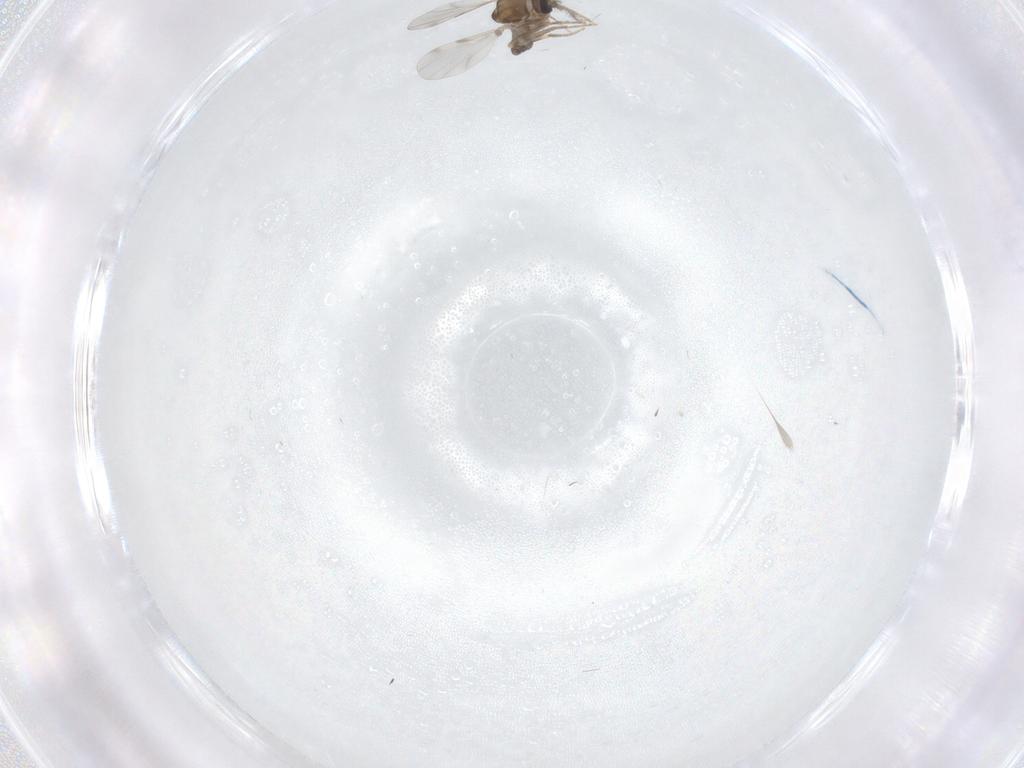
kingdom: Animalia
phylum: Arthropoda
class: Insecta
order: Diptera
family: Ceratopogonidae
